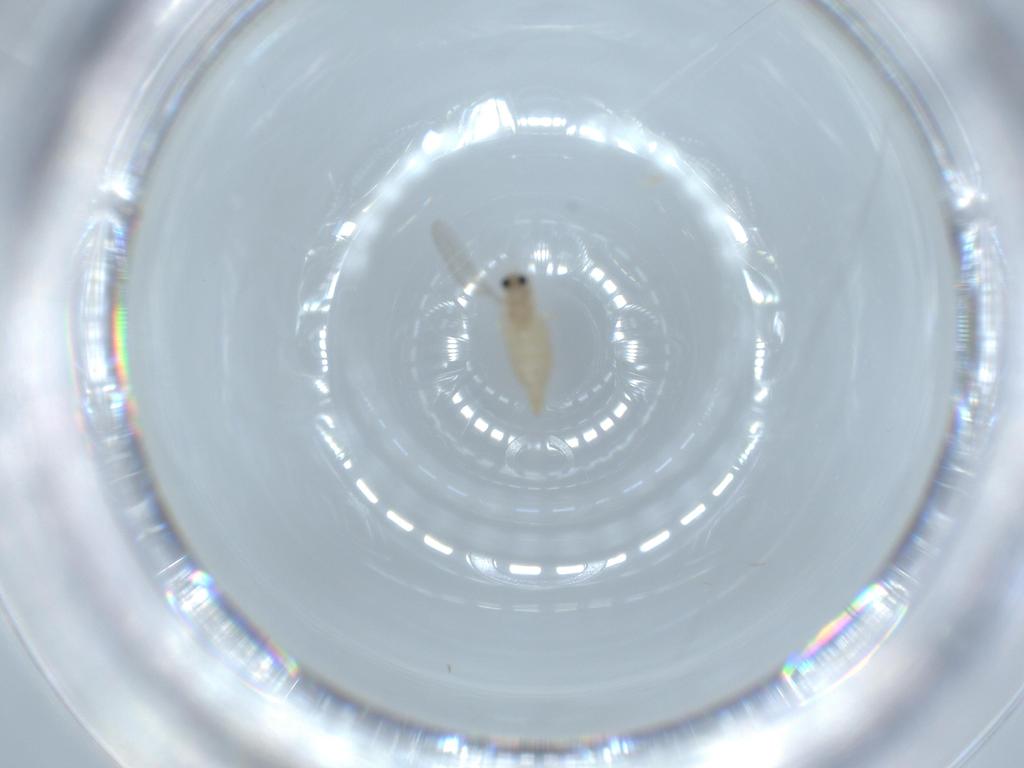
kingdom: Animalia
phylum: Arthropoda
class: Insecta
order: Diptera
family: Cecidomyiidae
